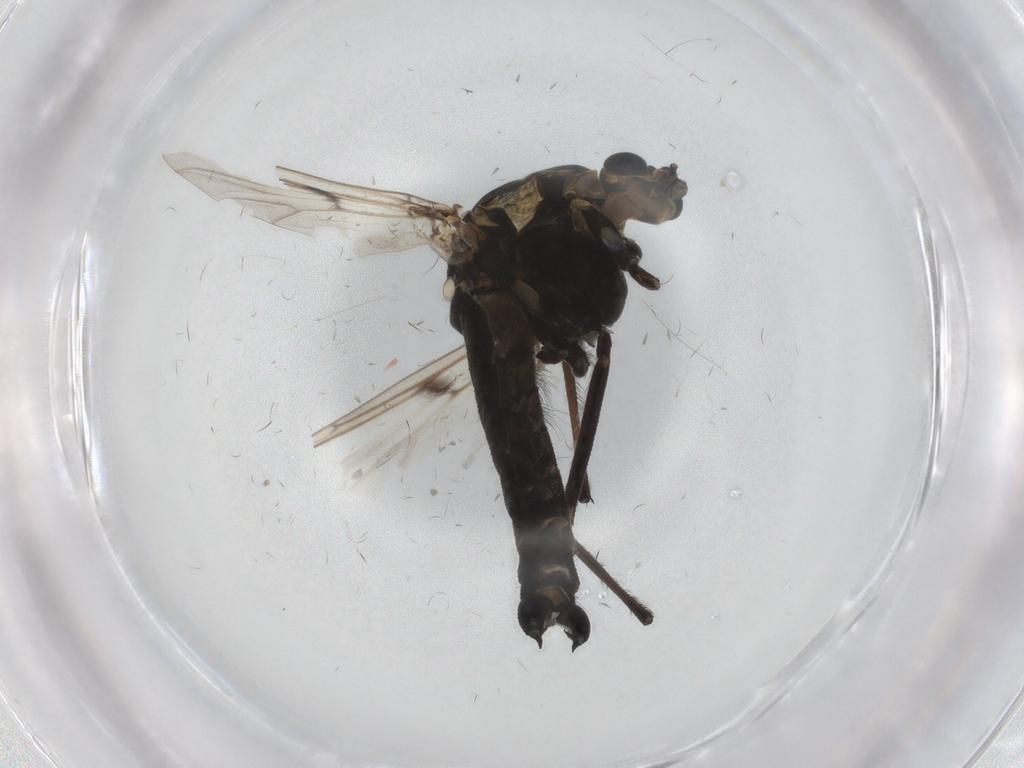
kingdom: Animalia
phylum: Arthropoda
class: Insecta
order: Diptera
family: Chironomidae
